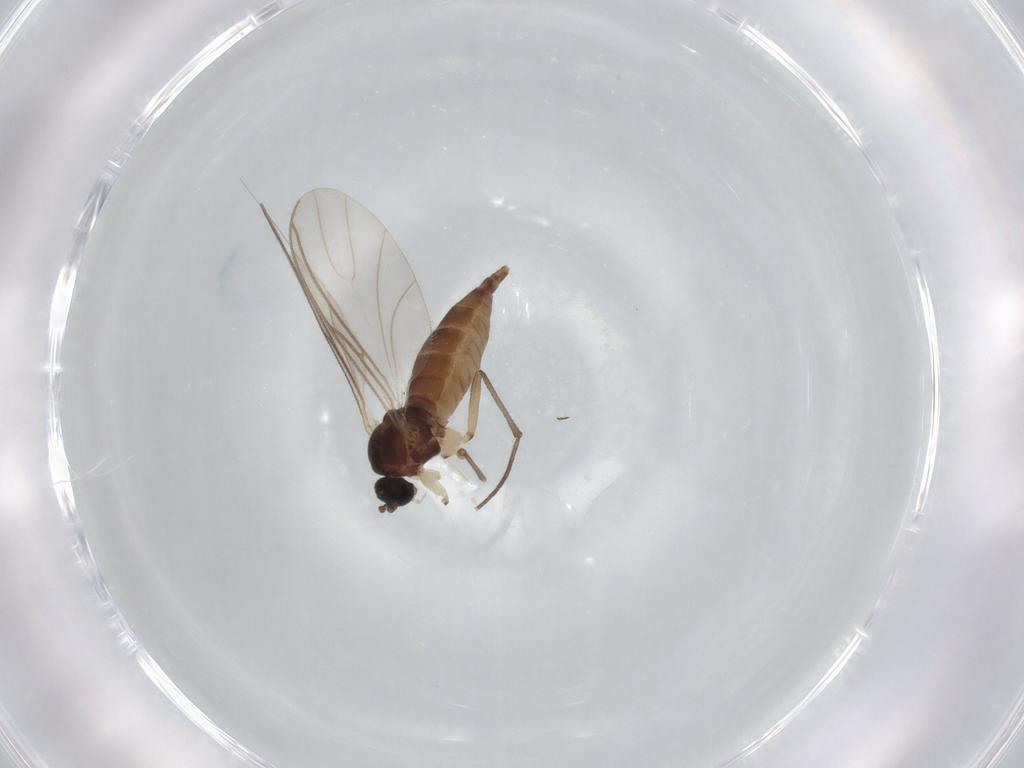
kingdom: Animalia
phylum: Arthropoda
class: Insecta
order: Diptera
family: Sciaridae
